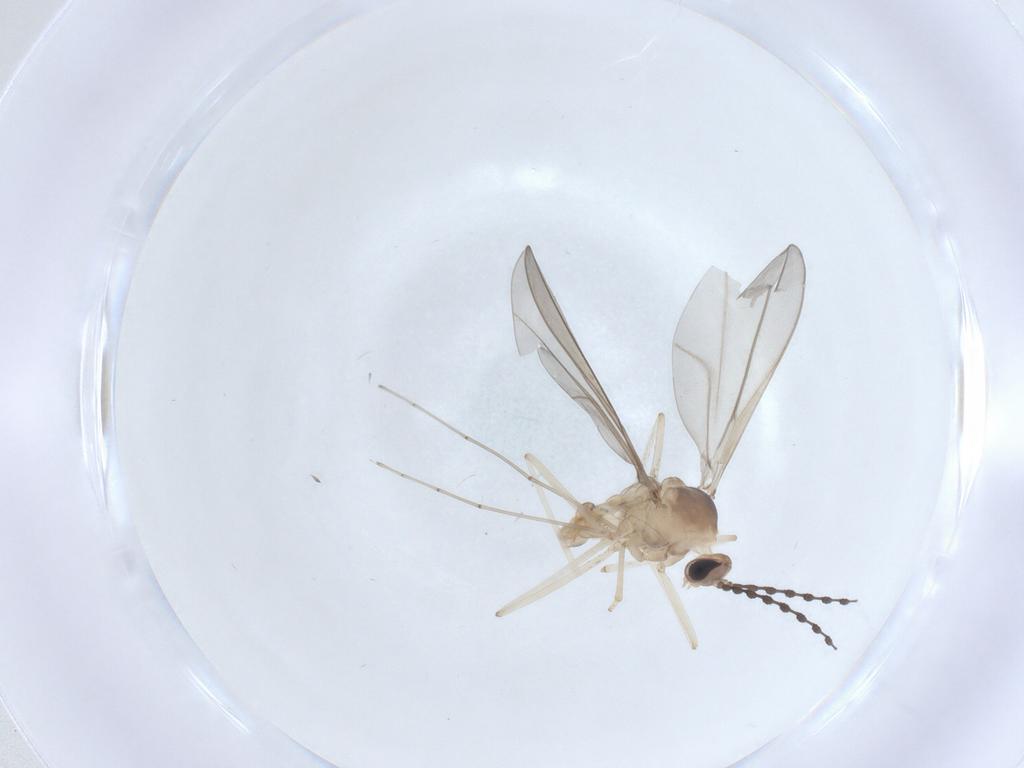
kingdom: Animalia
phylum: Arthropoda
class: Insecta
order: Diptera
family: Cecidomyiidae
